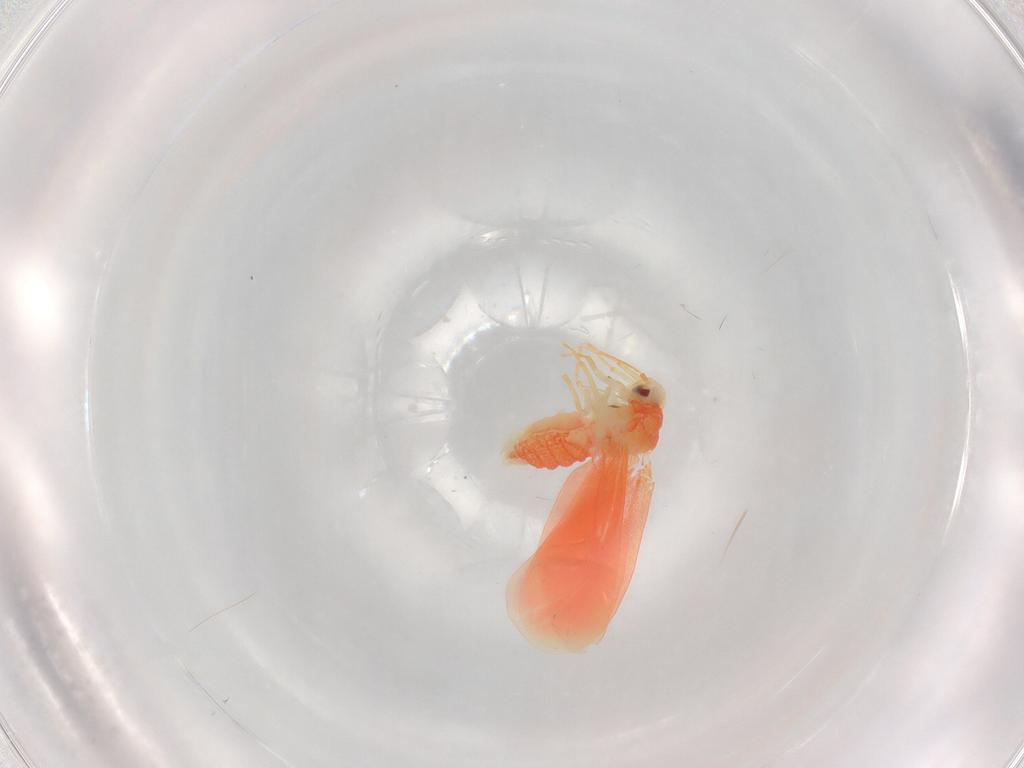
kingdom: Animalia
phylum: Arthropoda
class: Insecta
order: Hemiptera
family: Aleyrodidae
